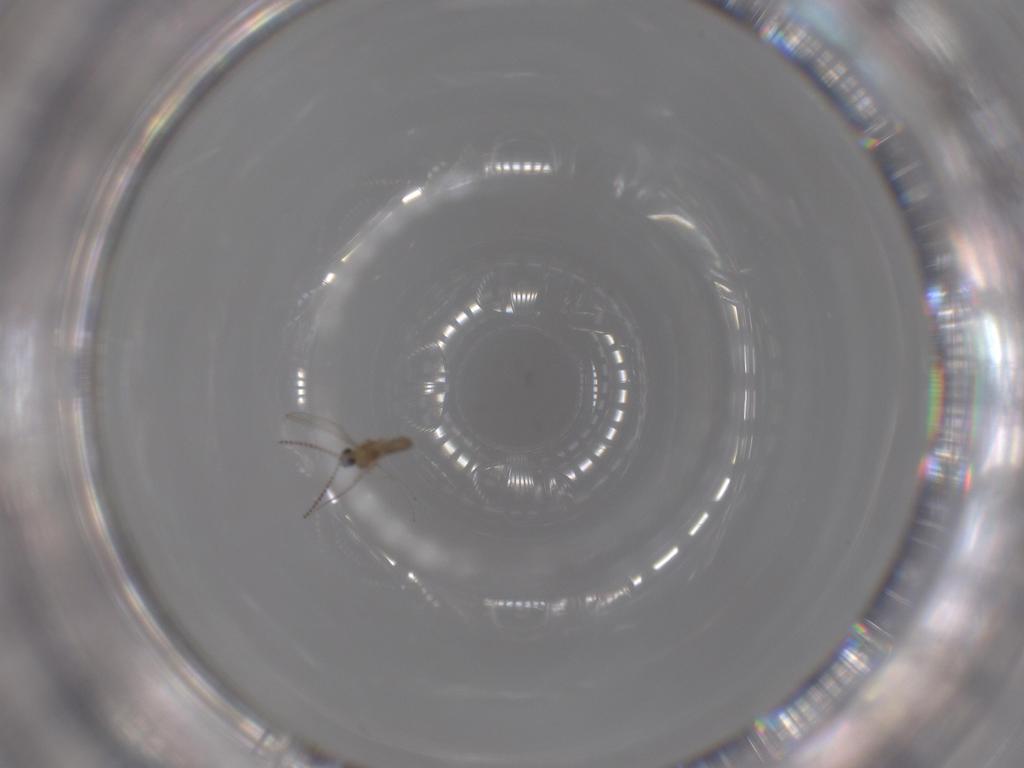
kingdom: Animalia
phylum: Arthropoda
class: Insecta
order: Diptera
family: Cecidomyiidae
